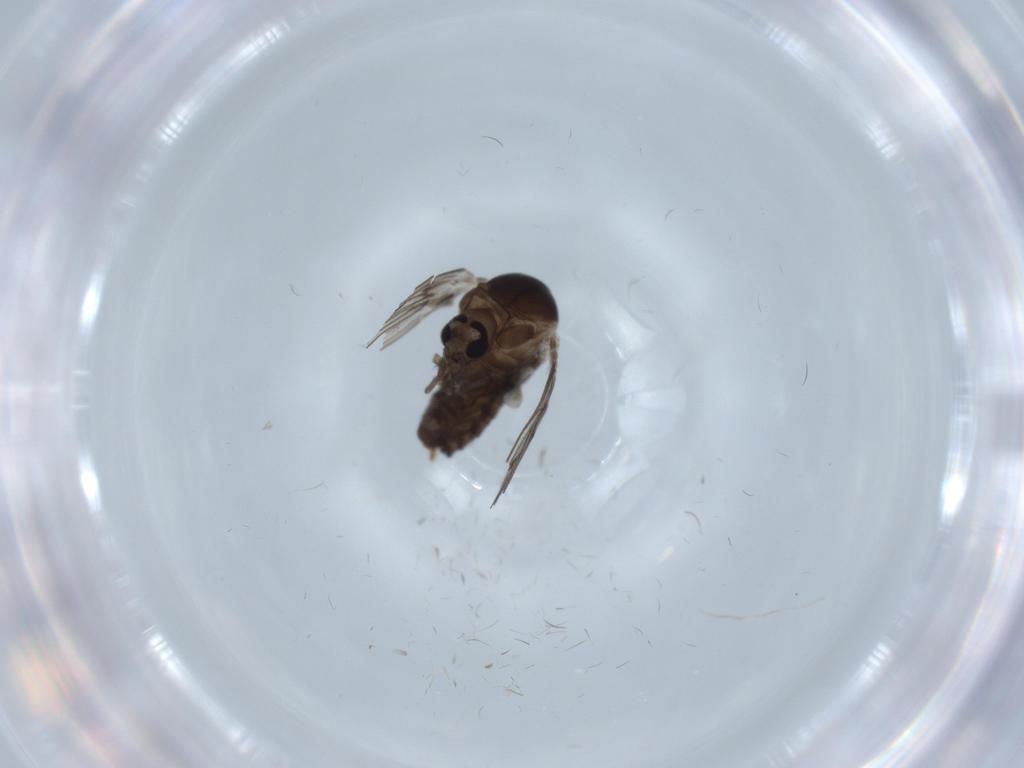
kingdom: Animalia
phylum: Arthropoda
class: Insecta
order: Diptera
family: Psychodidae
